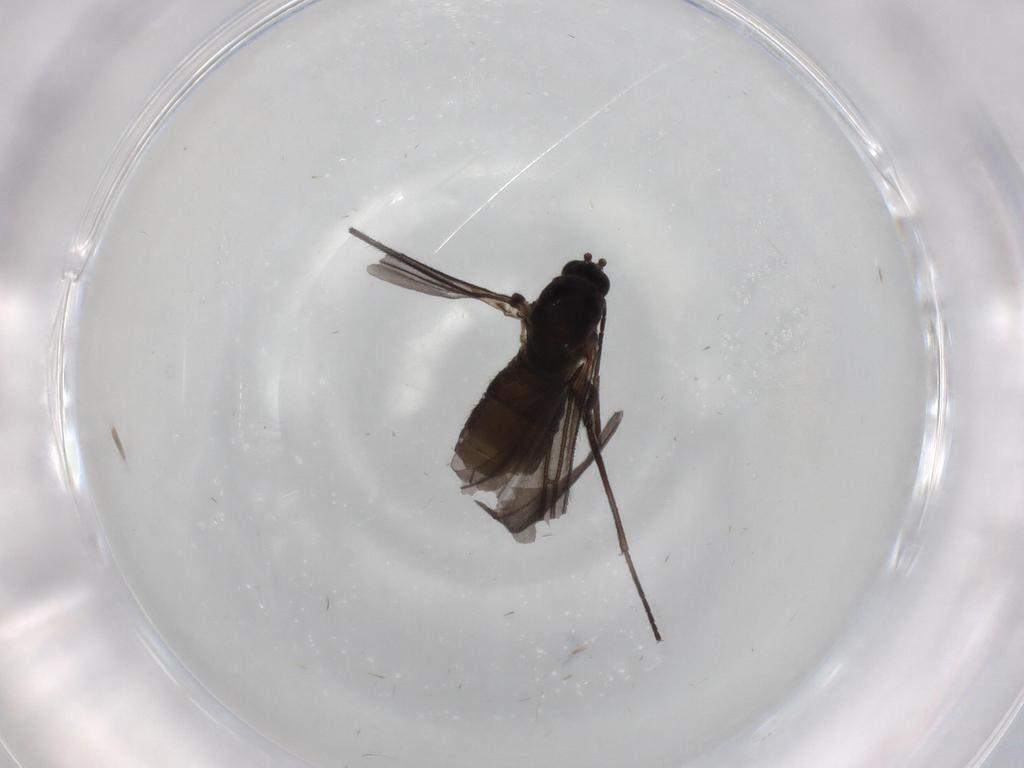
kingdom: Animalia
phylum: Arthropoda
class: Insecta
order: Diptera
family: Sciaridae
